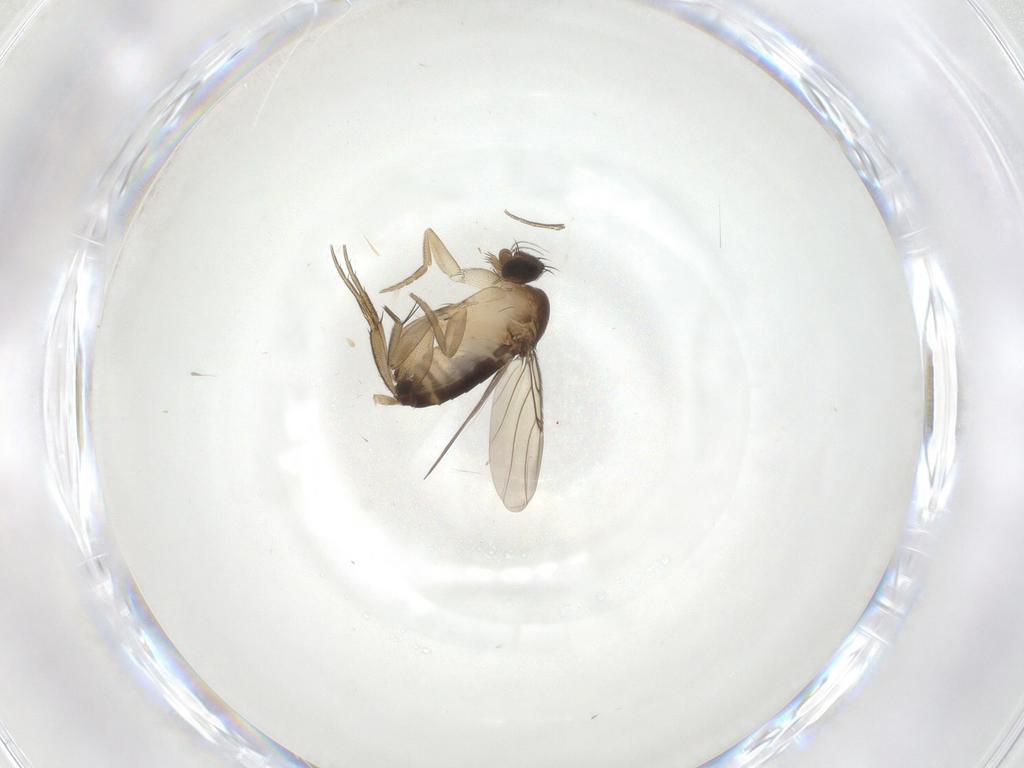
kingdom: Animalia
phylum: Arthropoda
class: Insecta
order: Diptera
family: Phoridae
